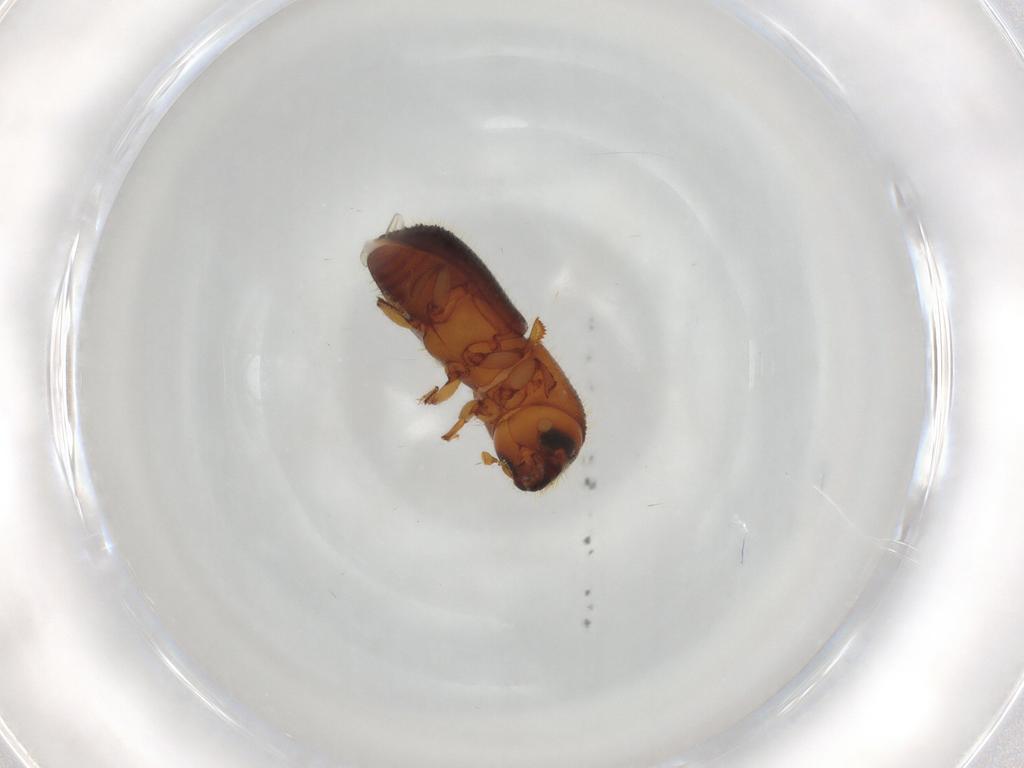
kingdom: Animalia
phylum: Arthropoda
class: Insecta
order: Coleoptera
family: Curculionidae
